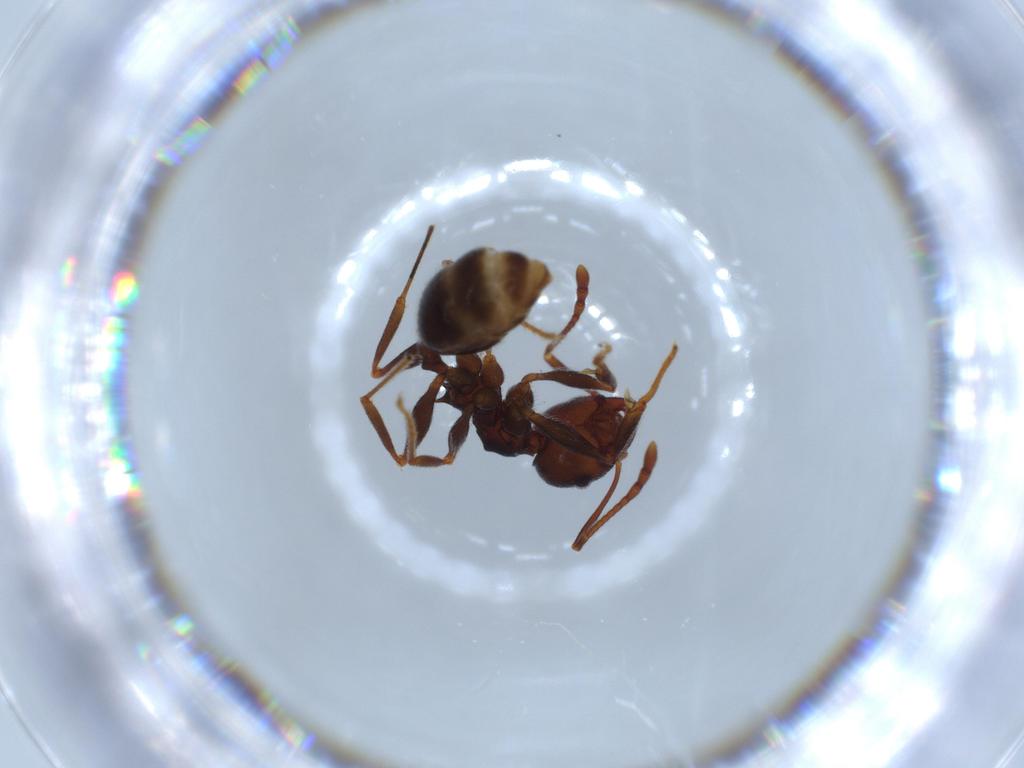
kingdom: Animalia
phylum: Arthropoda
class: Insecta
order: Hymenoptera
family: Formicidae
